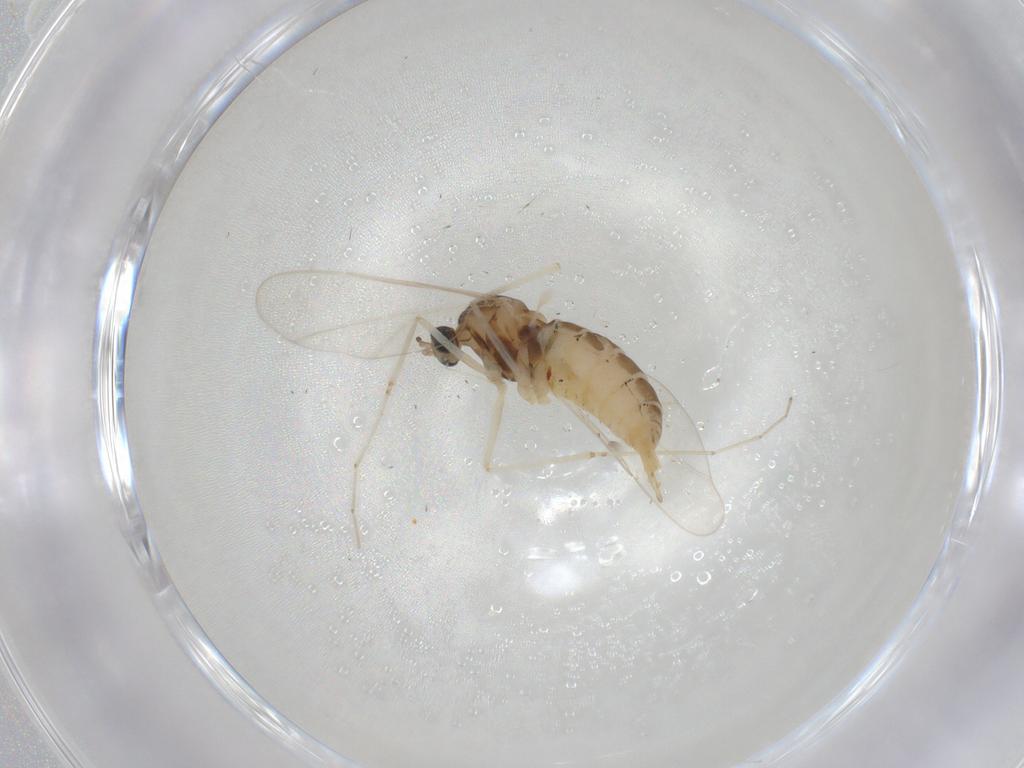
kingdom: Animalia
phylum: Arthropoda
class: Insecta
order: Diptera
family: Cecidomyiidae
